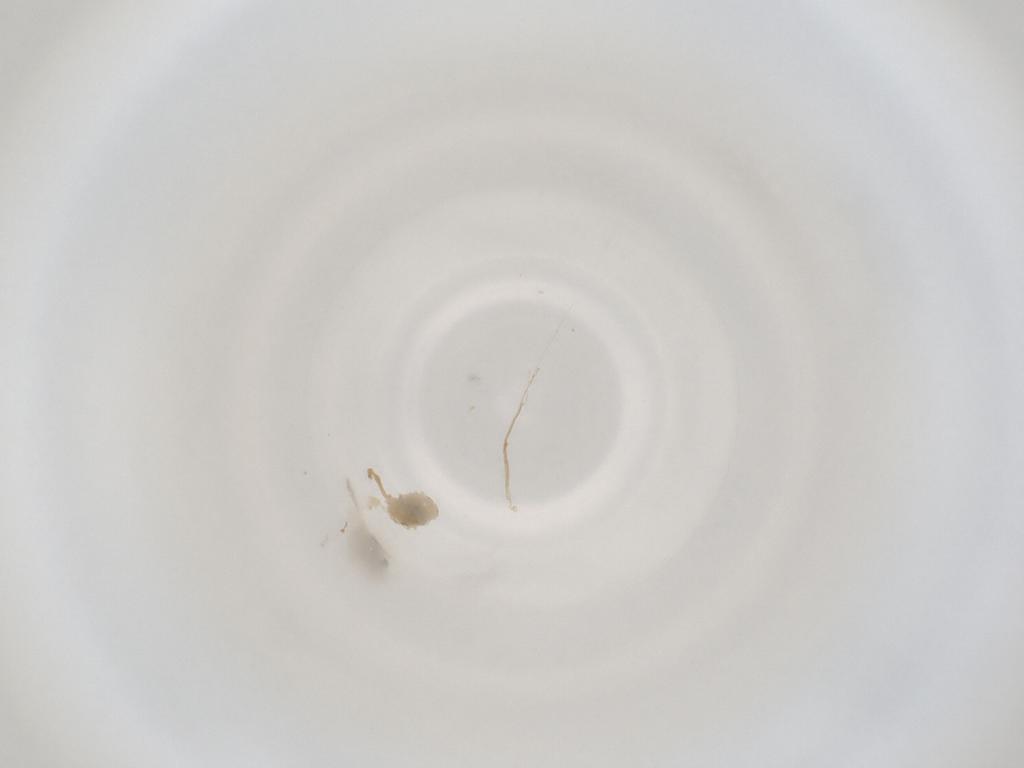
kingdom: Animalia
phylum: Arthropoda
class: Insecta
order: Diptera
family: Cecidomyiidae
